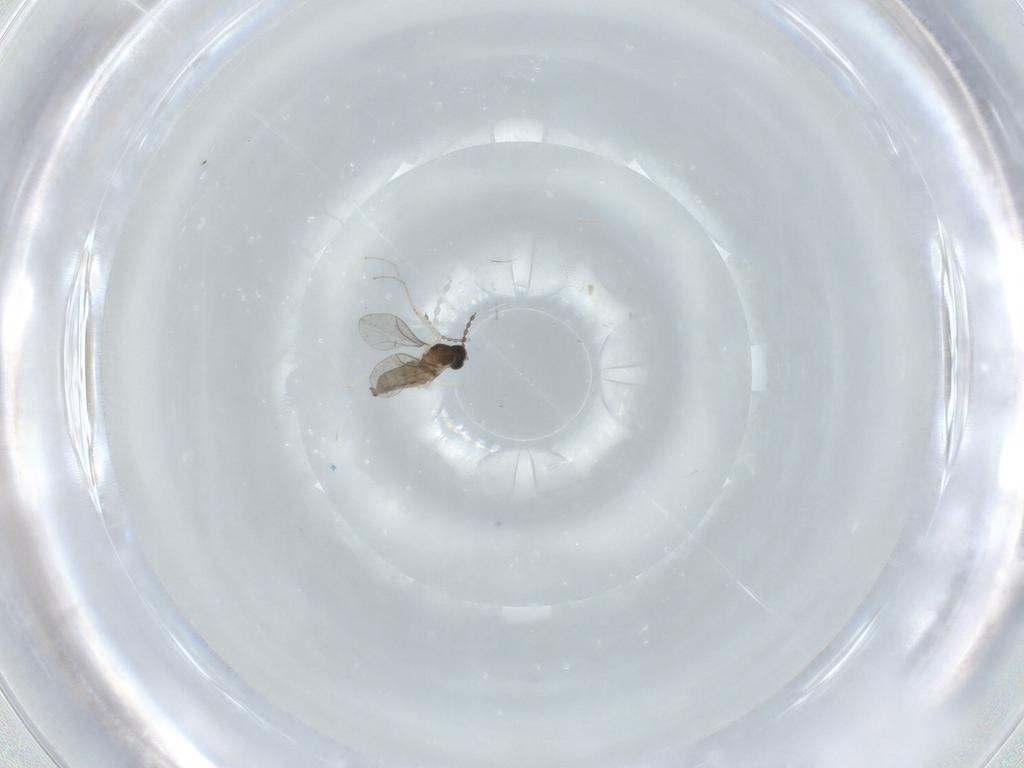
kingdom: Animalia
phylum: Arthropoda
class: Insecta
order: Diptera
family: Cecidomyiidae
